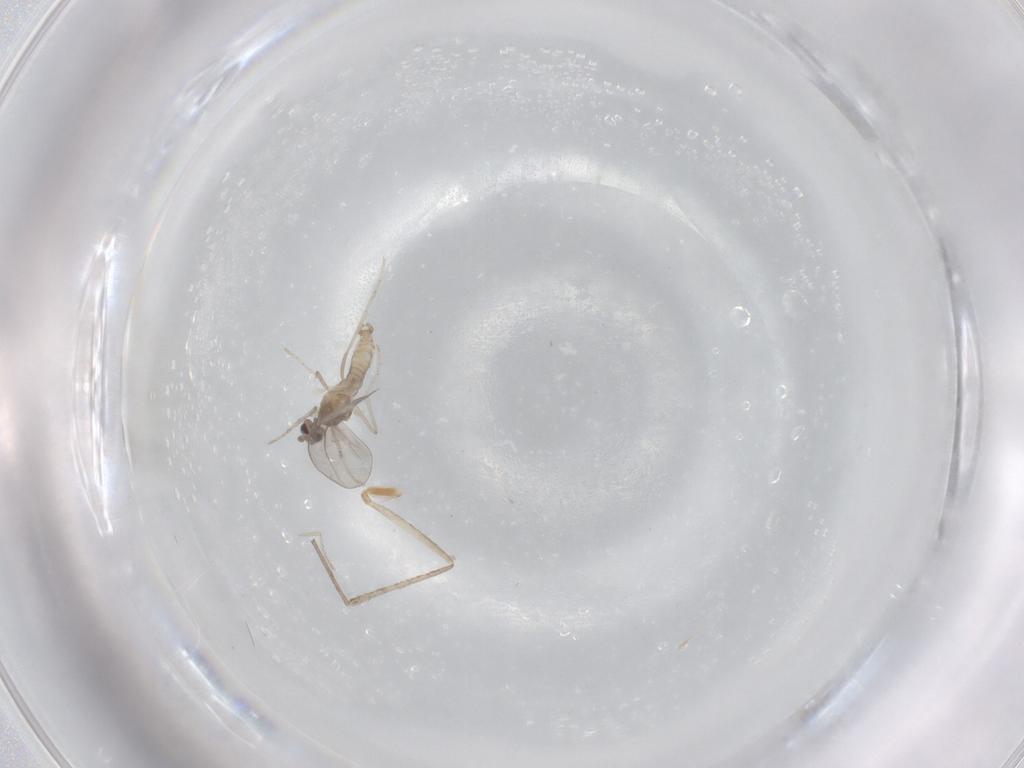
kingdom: Animalia
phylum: Arthropoda
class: Insecta
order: Diptera
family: Cecidomyiidae
